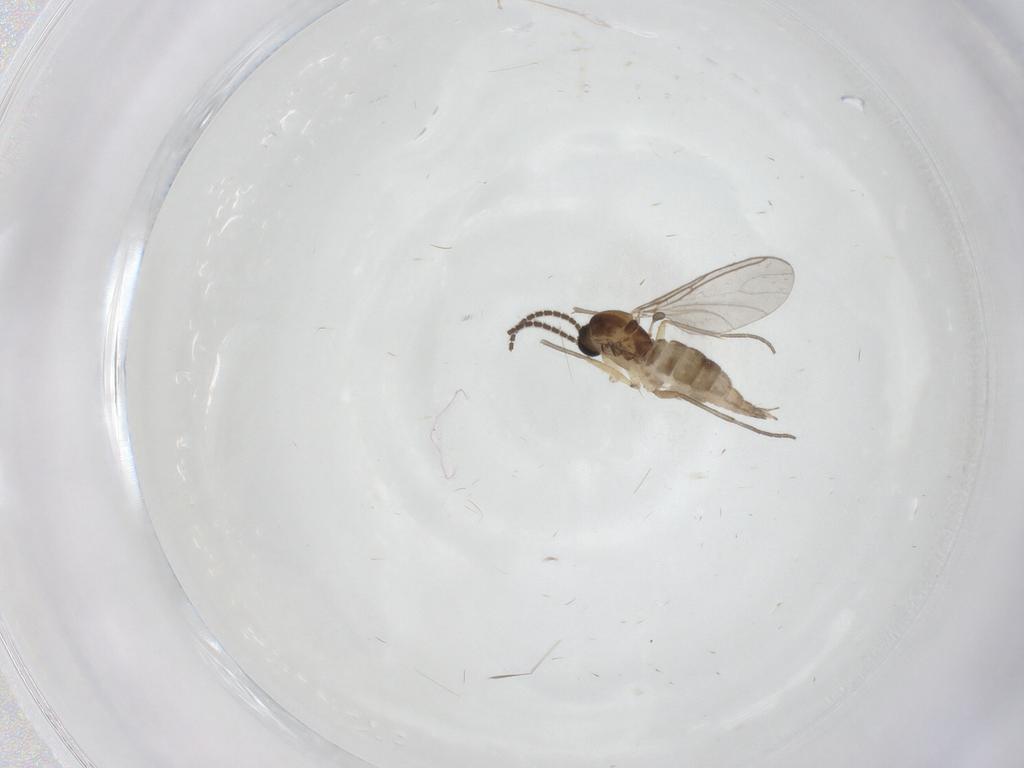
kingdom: Animalia
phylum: Arthropoda
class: Insecta
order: Diptera
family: Sciaridae
